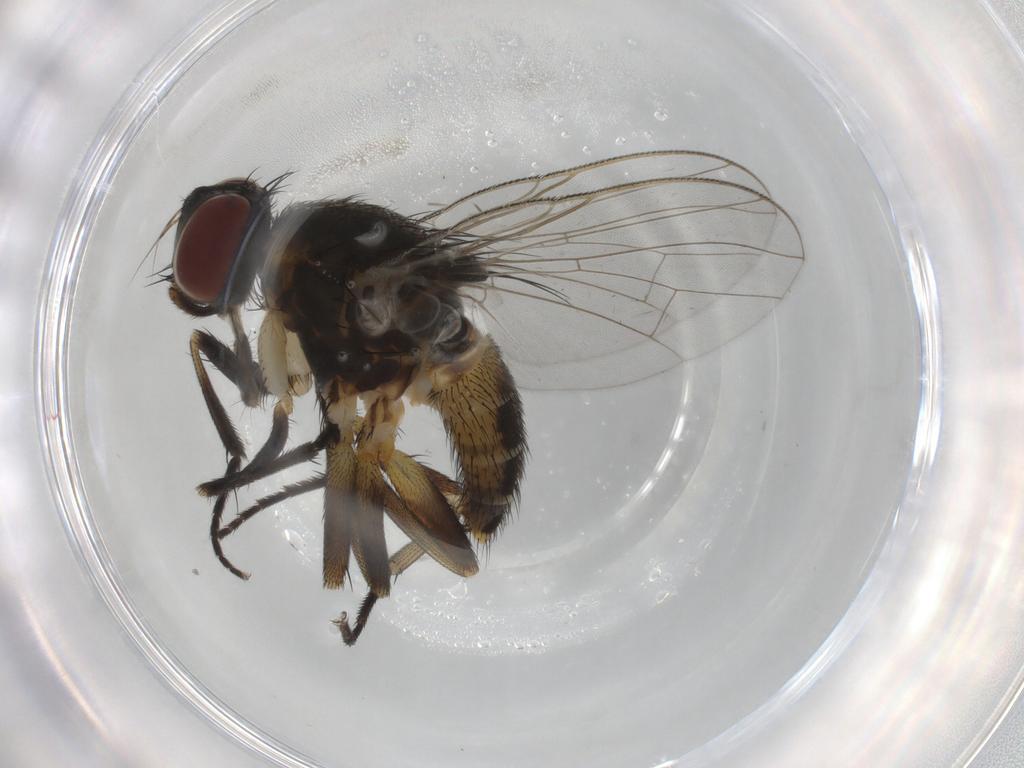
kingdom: Animalia
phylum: Arthropoda
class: Insecta
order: Diptera
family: Muscidae
